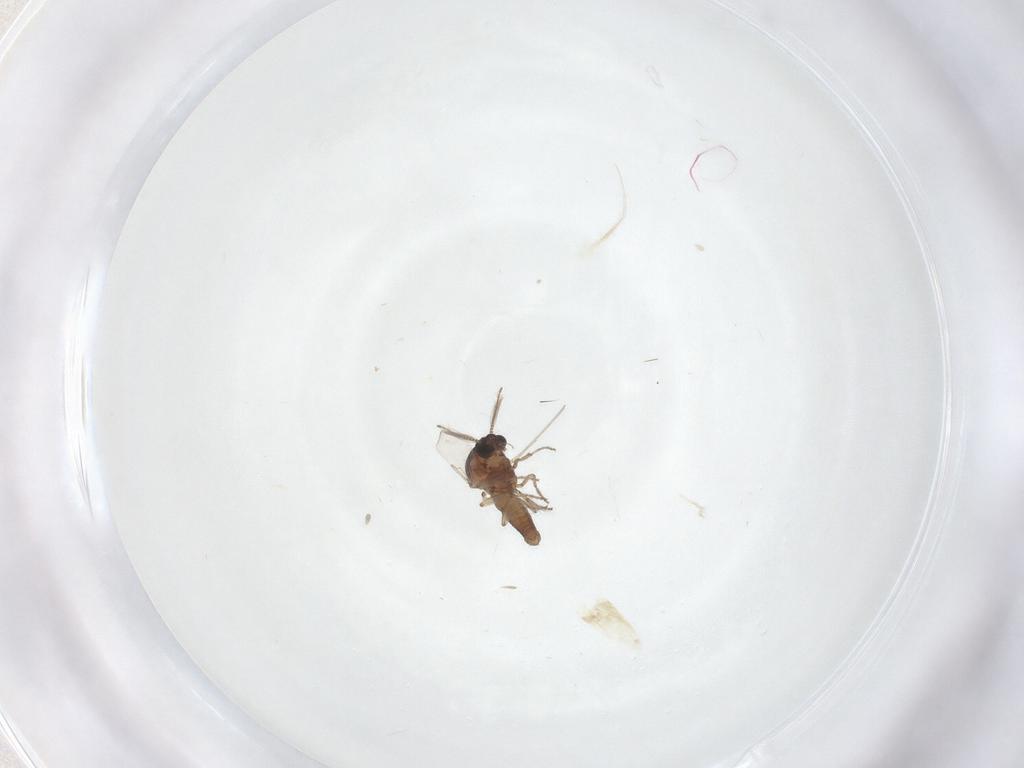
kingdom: Animalia
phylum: Arthropoda
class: Insecta
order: Diptera
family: Ceratopogonidae
